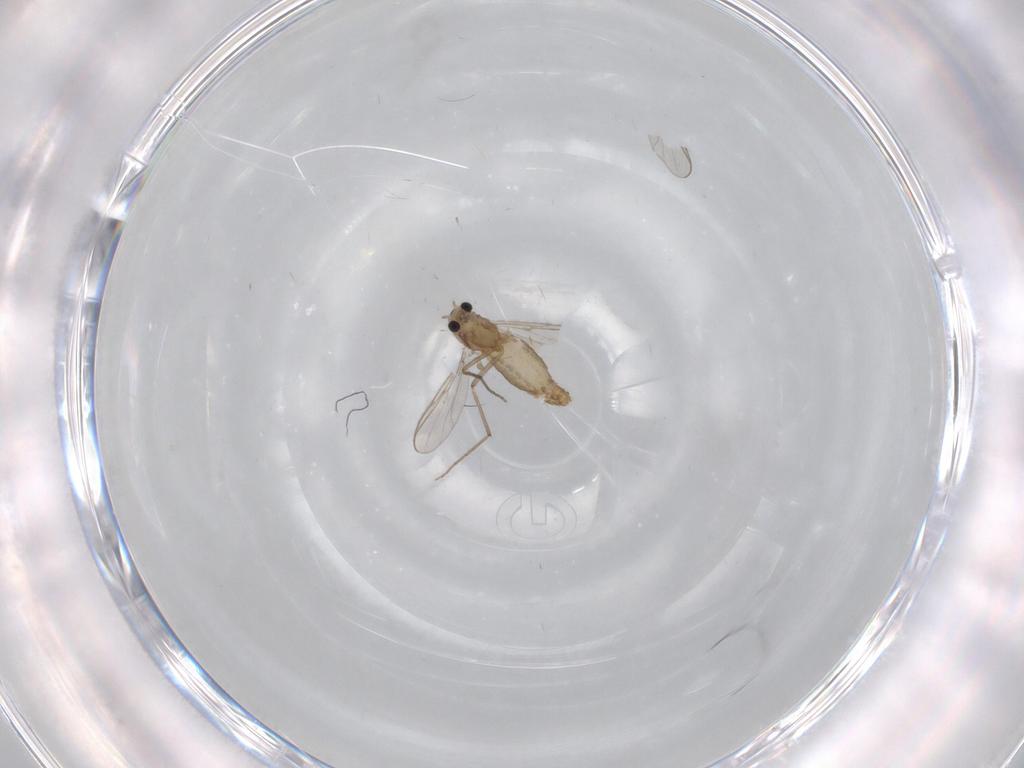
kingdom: Animalia
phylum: Arthropoda
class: Insecta
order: Diptera
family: Chironomidae
